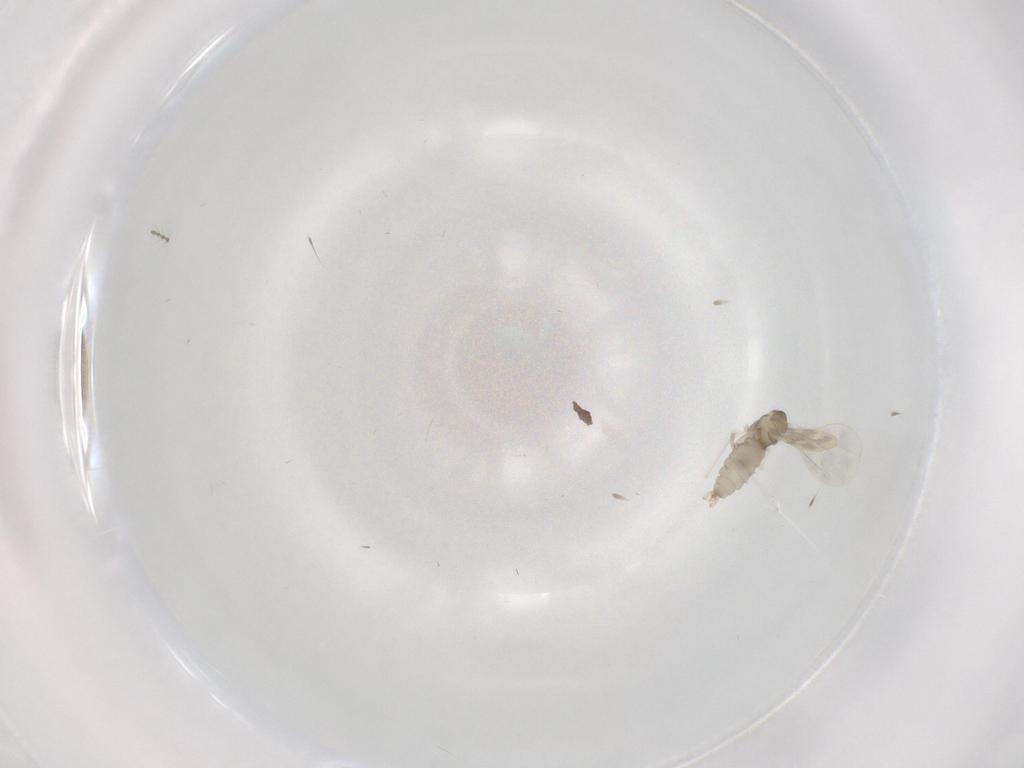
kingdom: Animalia
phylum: Arthropoda
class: Insecta
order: Diptera
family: Cecidomyiidae
